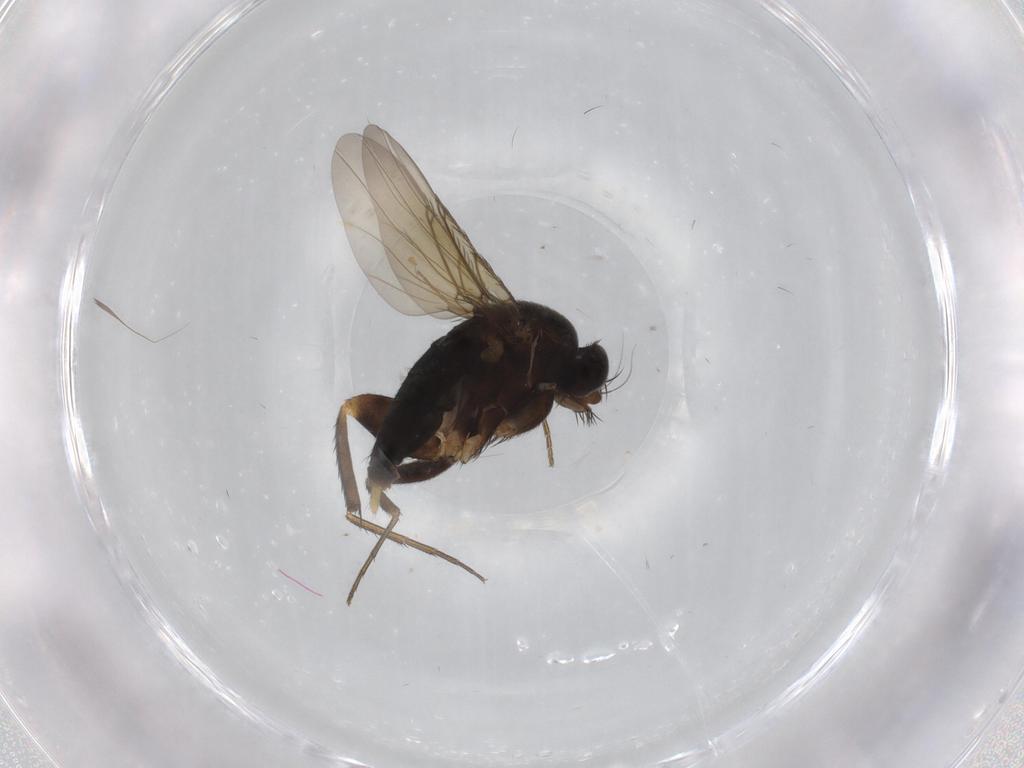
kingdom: Animalia
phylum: Arthropoda
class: Insecta
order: Diptera
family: Phoridae
